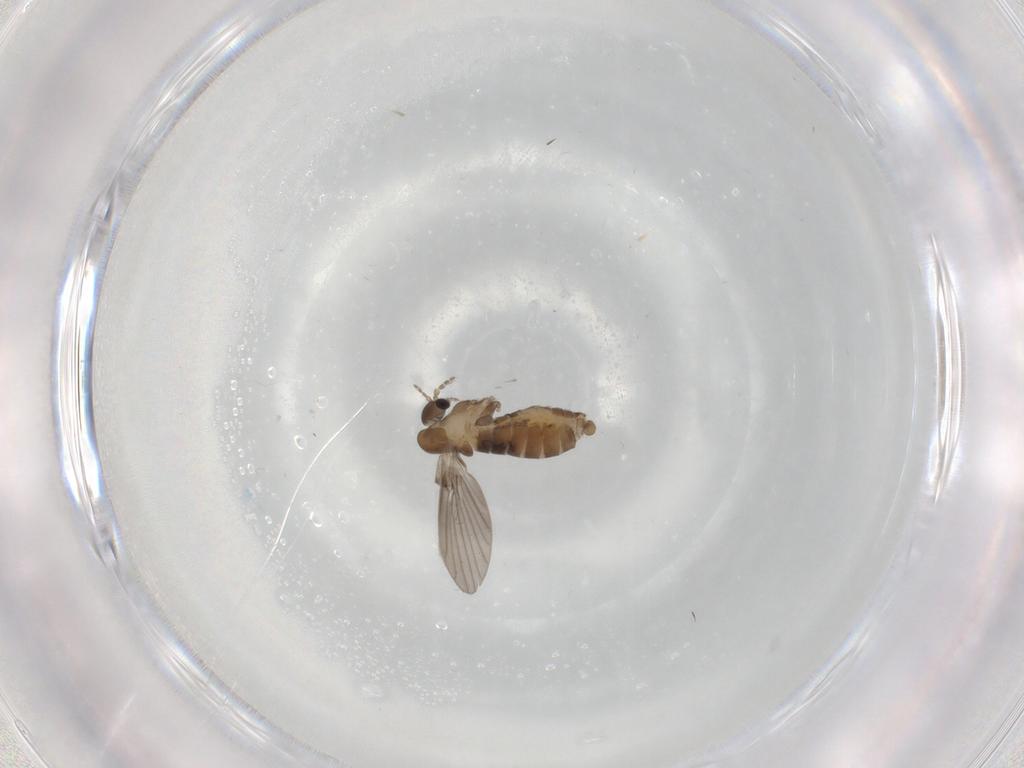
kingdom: Animalia
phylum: Arthropoda
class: Insecta
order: Diptera
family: Psychodidae
